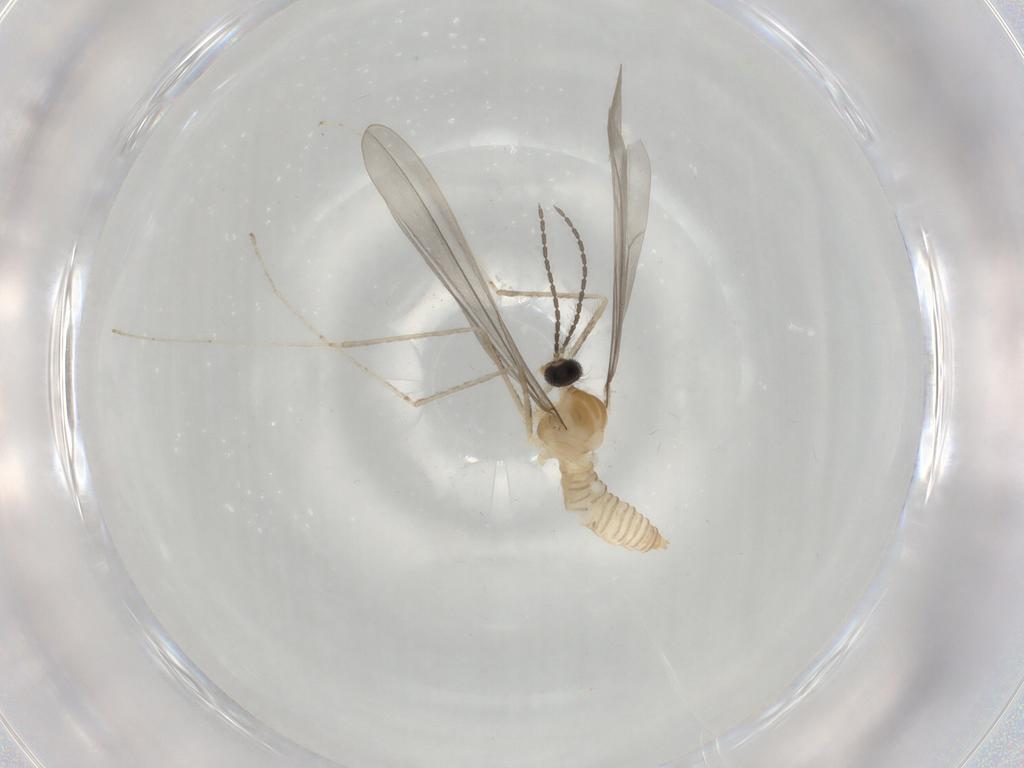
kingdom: Animalia
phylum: Arthropoda
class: Insecta
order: Diptera
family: Cecidomyiidae
